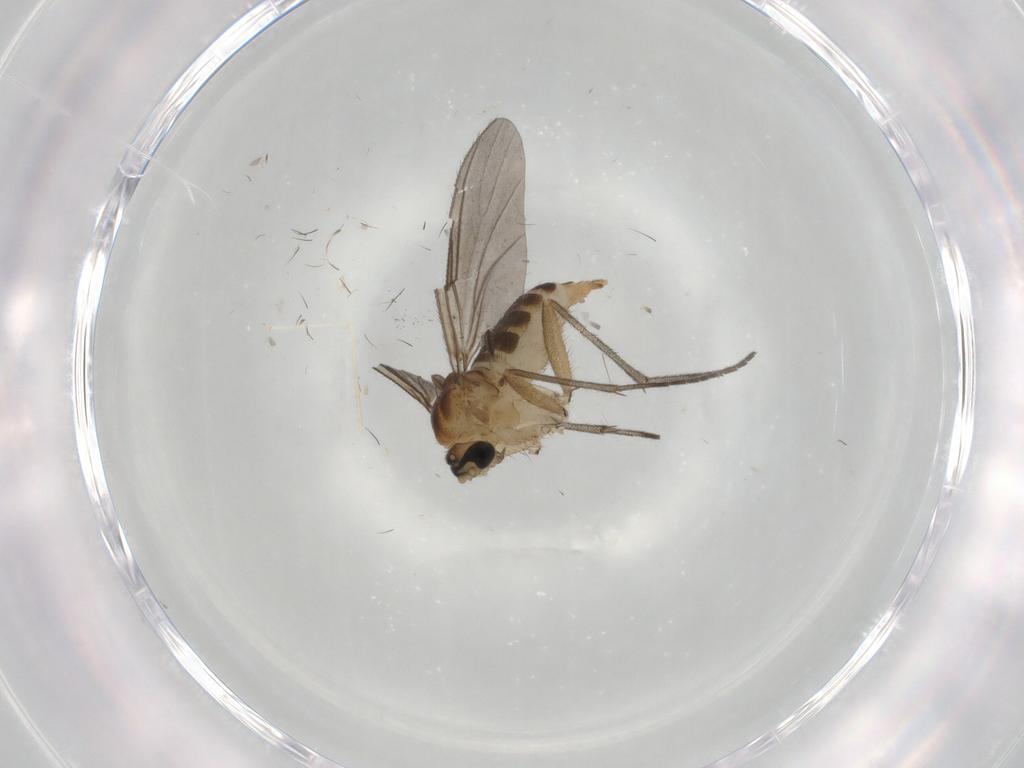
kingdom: Animalia
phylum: Arthropoda
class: Insecta
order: Diptera
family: Sciaridae
